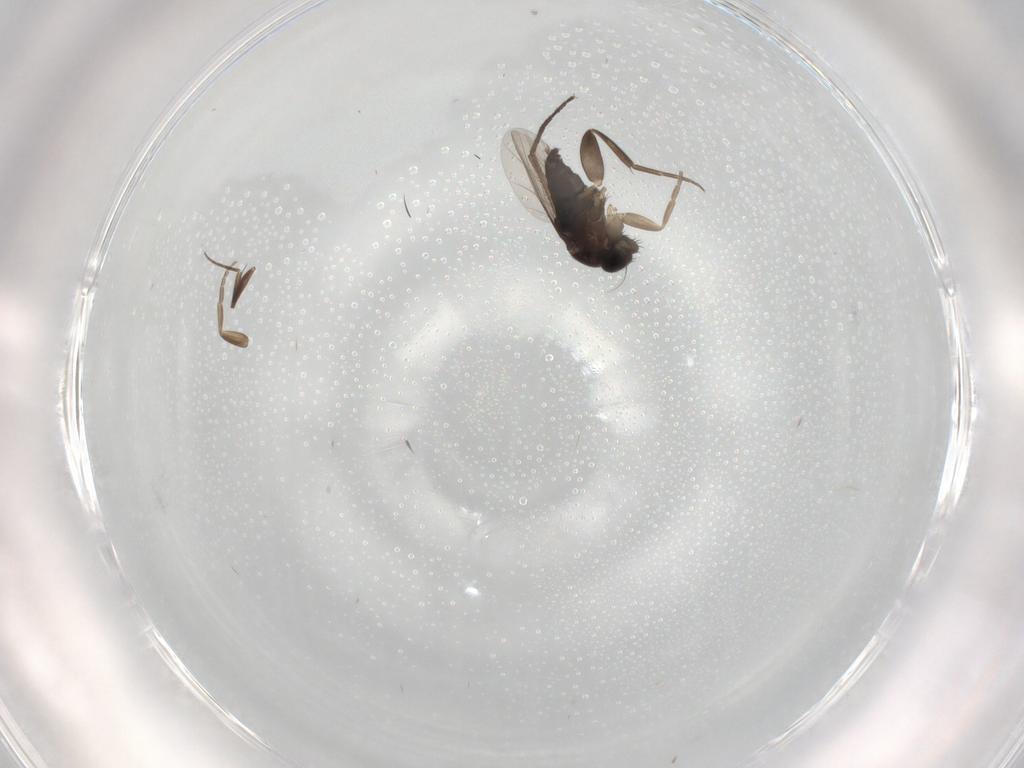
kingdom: Animalia
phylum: Arthropoda
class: Insecta
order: Diptera
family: Phoridae
